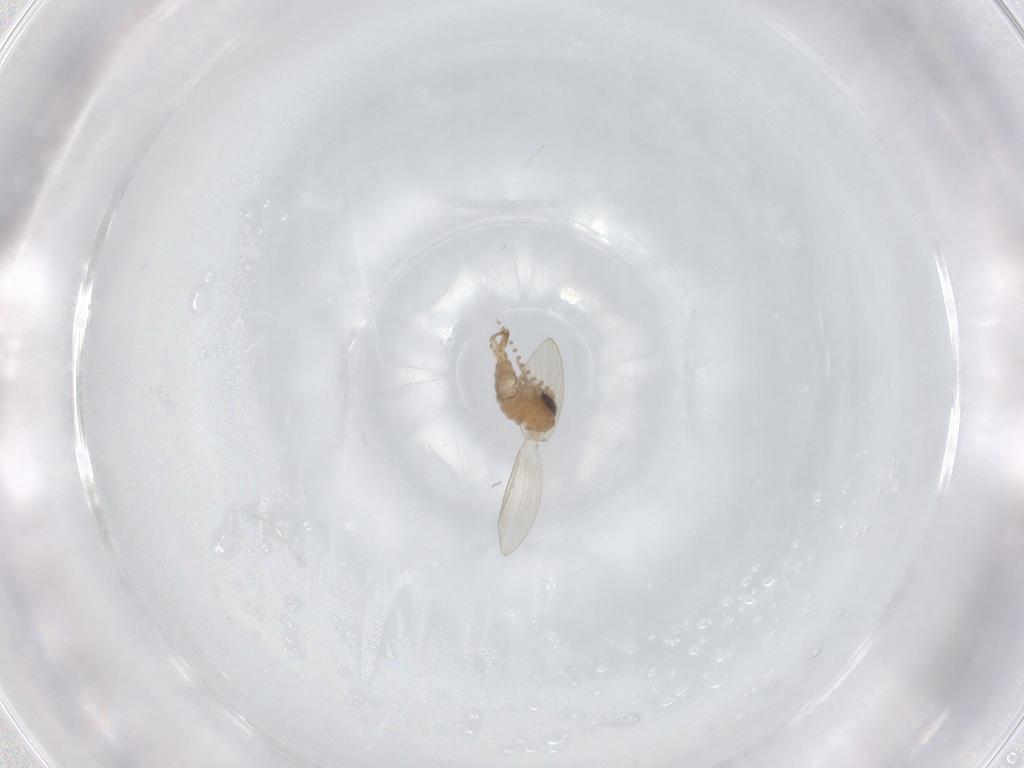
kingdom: Animalia
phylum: Arthropoda
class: Insecta
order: Diptera
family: Psychodidae
